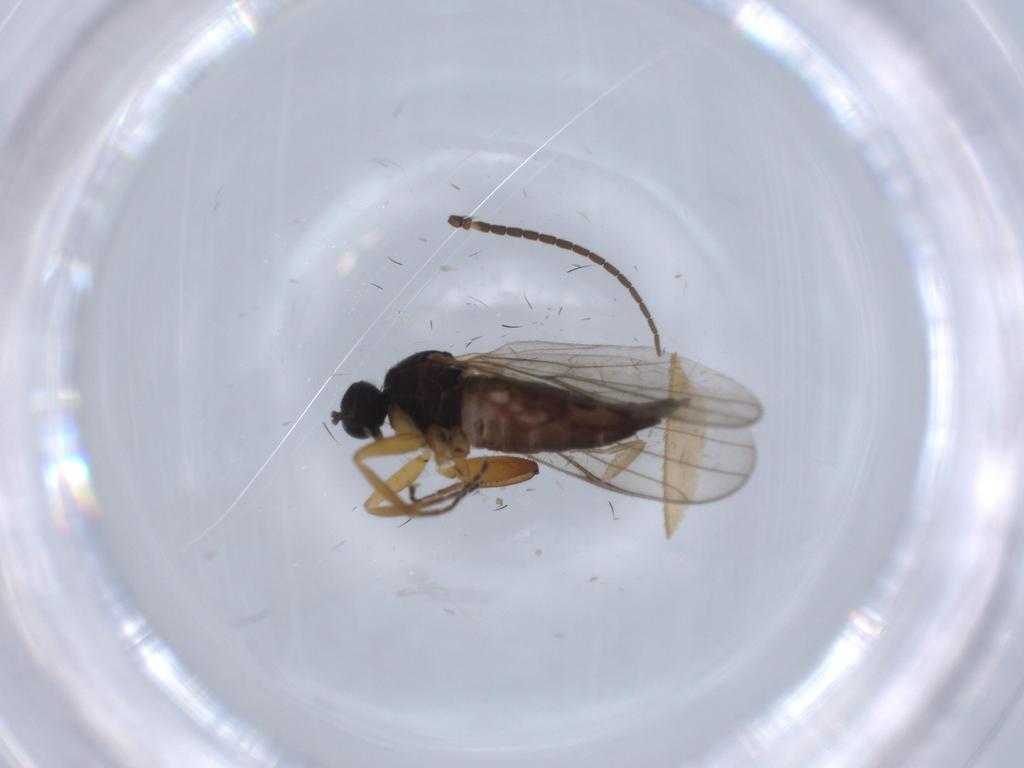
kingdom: Animalia
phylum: Arthropoda
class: Insecta
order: Diptera
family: Hybotidae
